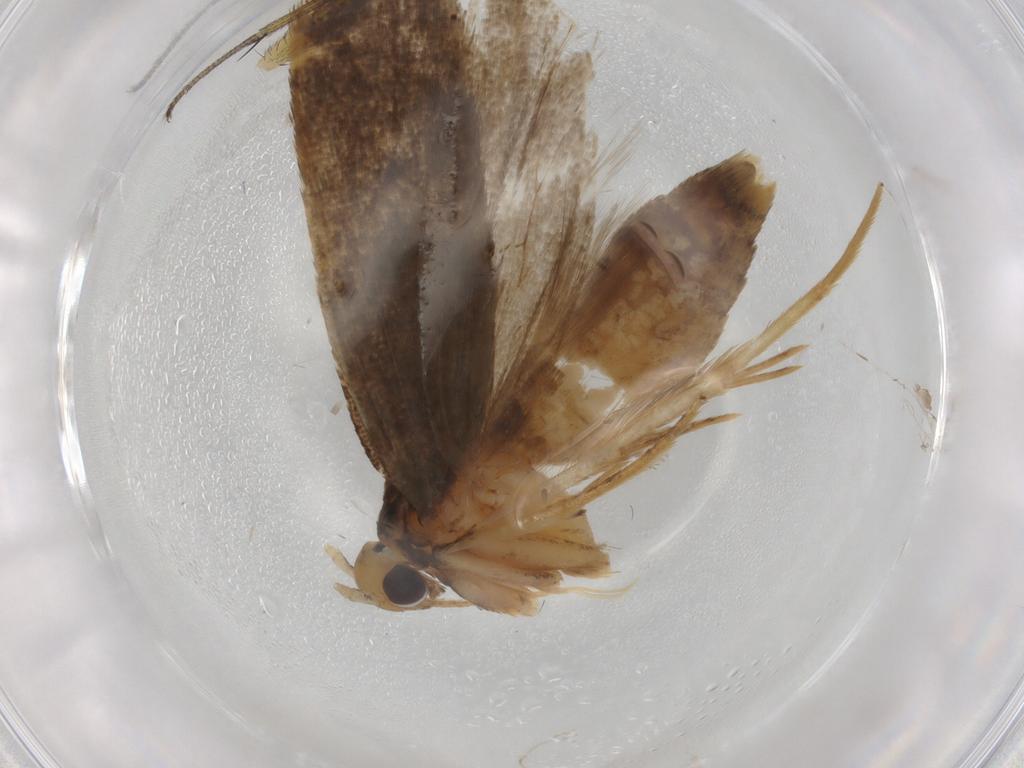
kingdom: Animalia
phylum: Arthropoda
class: Insecta
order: Lepidoptera
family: Lecithoceridae
